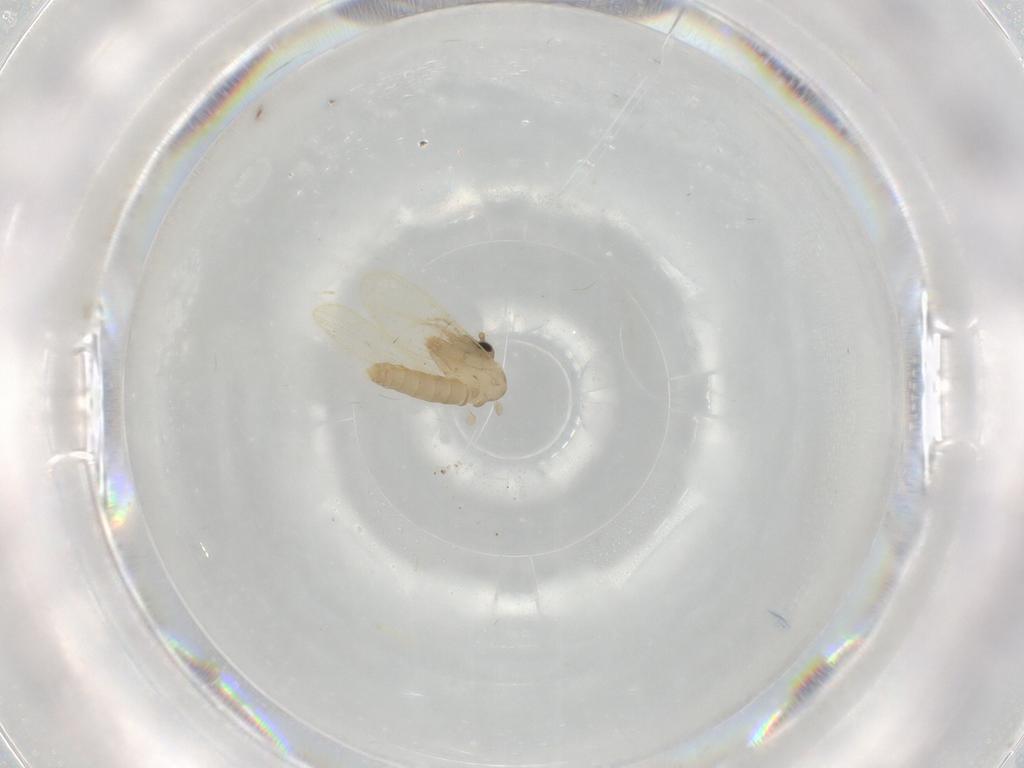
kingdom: Animalia
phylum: Arthropoda
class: Insecta
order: Diptera
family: Psychodidae
